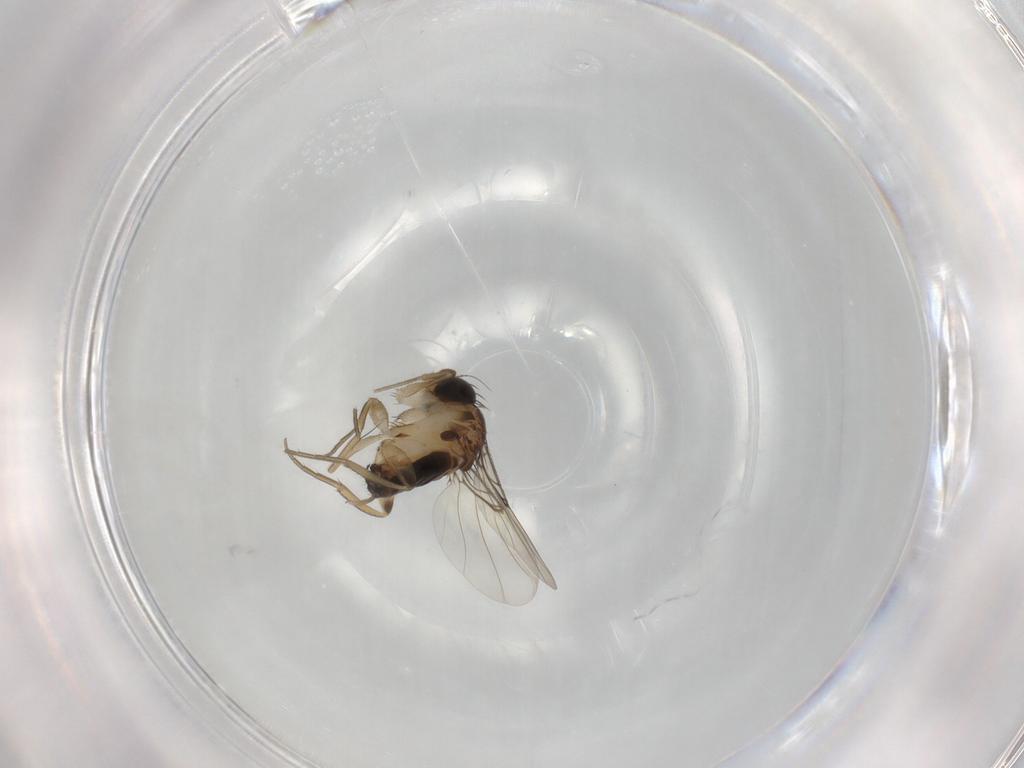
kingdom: Animalia
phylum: Arthropoda
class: Insecta
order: Diptera
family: Phoridae
